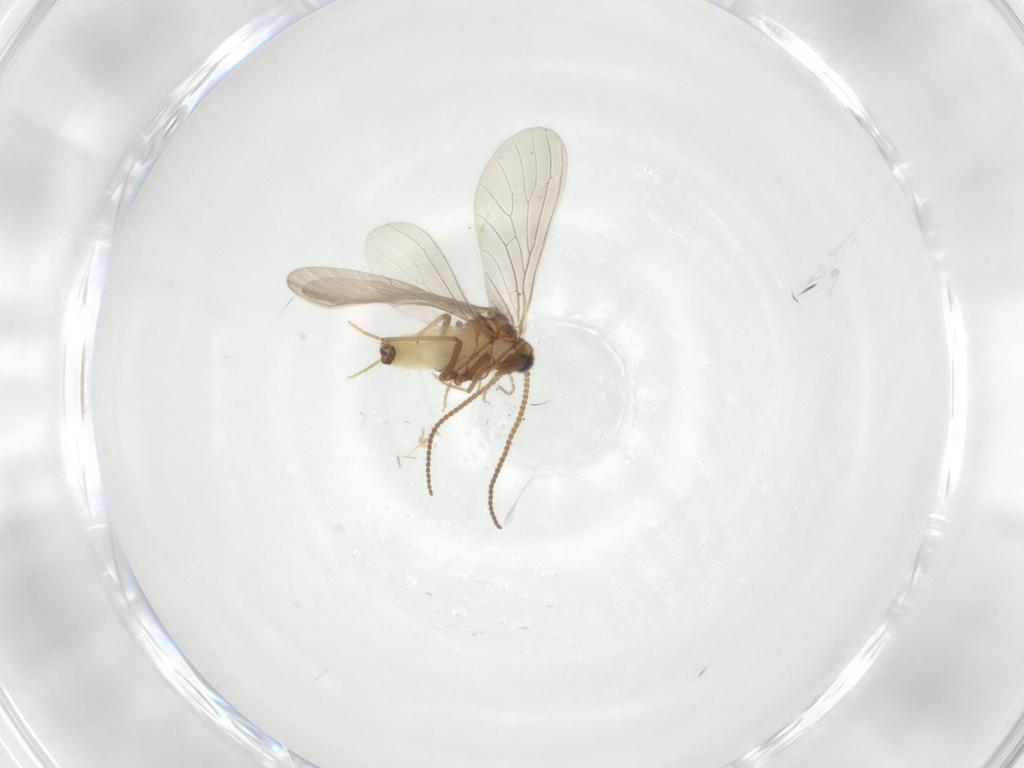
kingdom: Animalia
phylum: Arthropoda
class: Insecta
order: Neuroptera
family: Coniopterygidae
